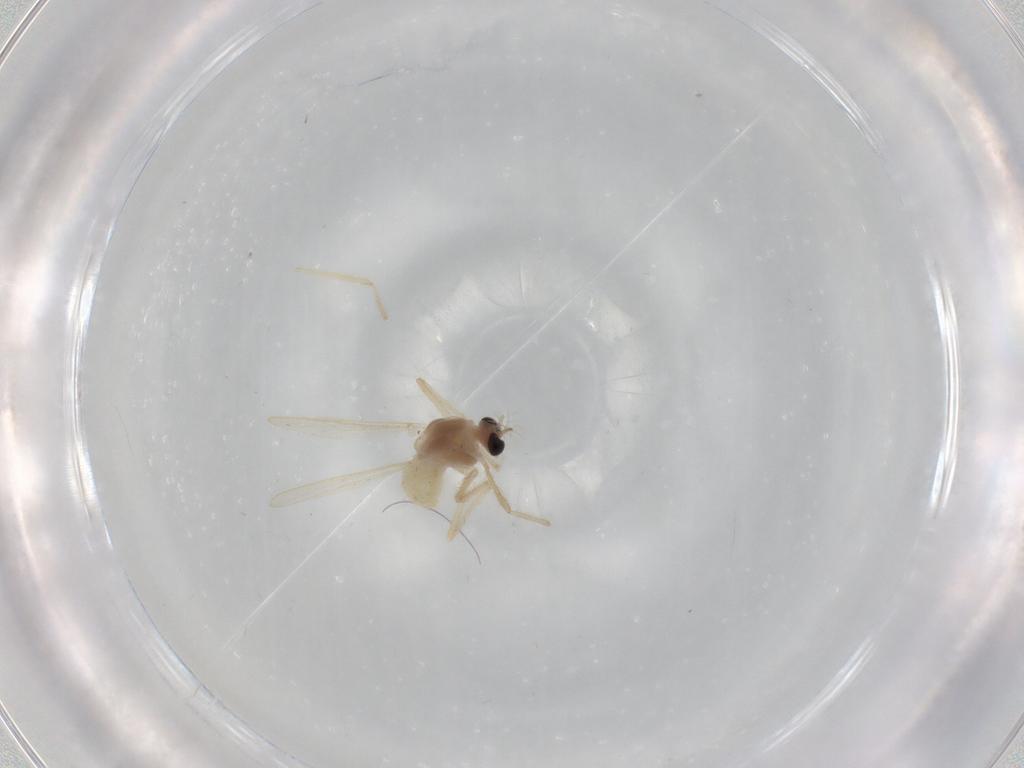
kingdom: Animalia
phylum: Arthropoda
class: Insecta
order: Diptera
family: Chironomidae
